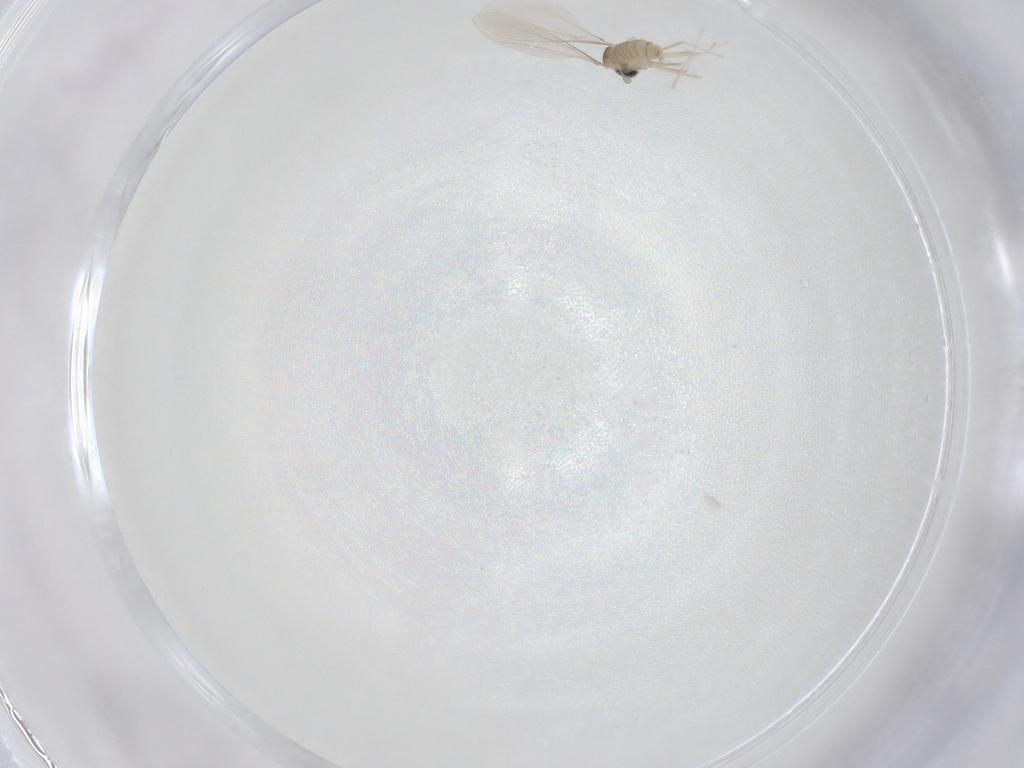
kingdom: Animalia
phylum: Arthropoda
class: Insecta
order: Diptera
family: Cecidomyiidae
